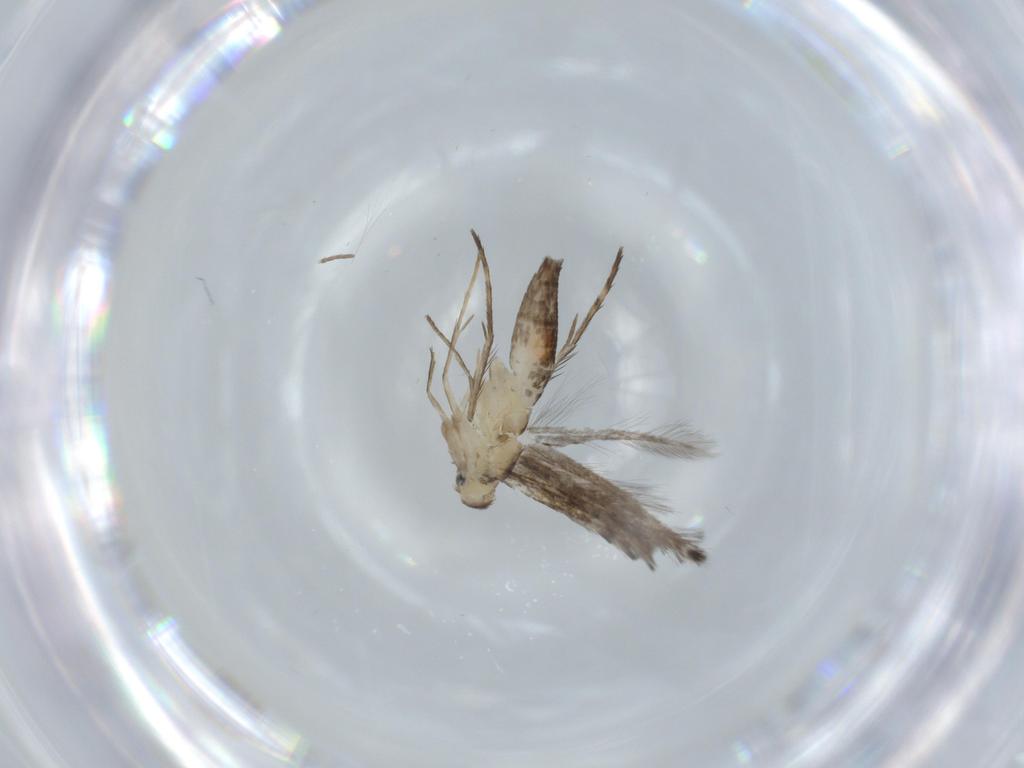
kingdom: Animalia
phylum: Arthropoda
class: Insecta
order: Lepidoptera
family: Gracillariidae
